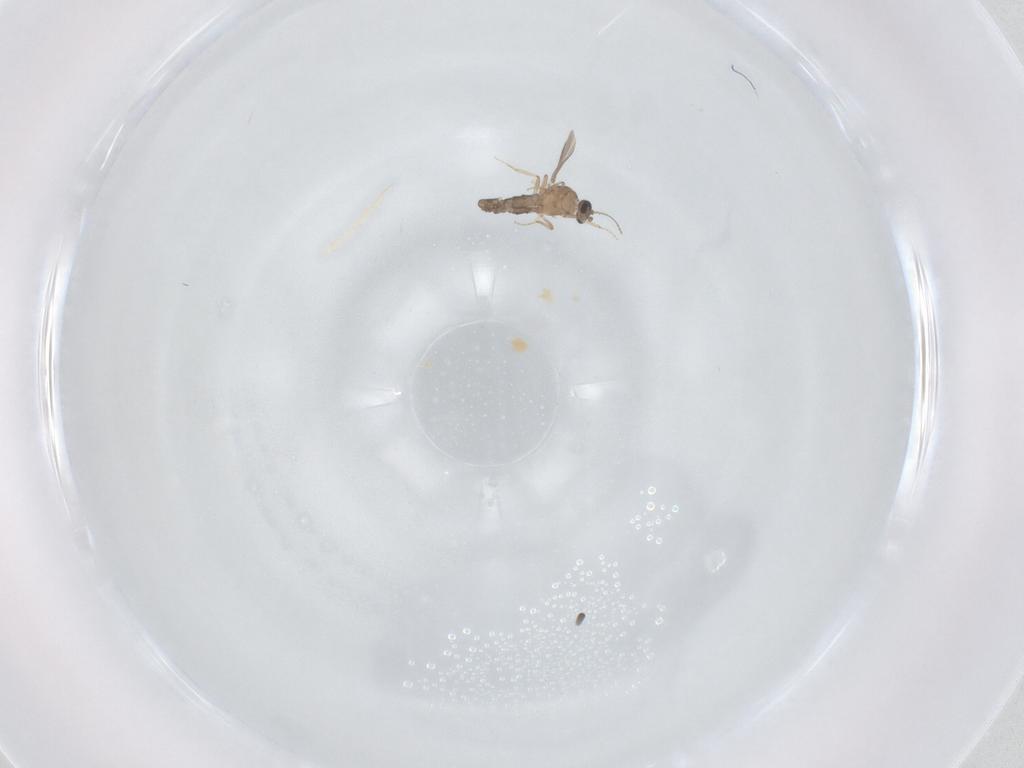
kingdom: Animalia
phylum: Arthropoda
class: Insecta
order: Diptera
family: Ceratopogonidae
